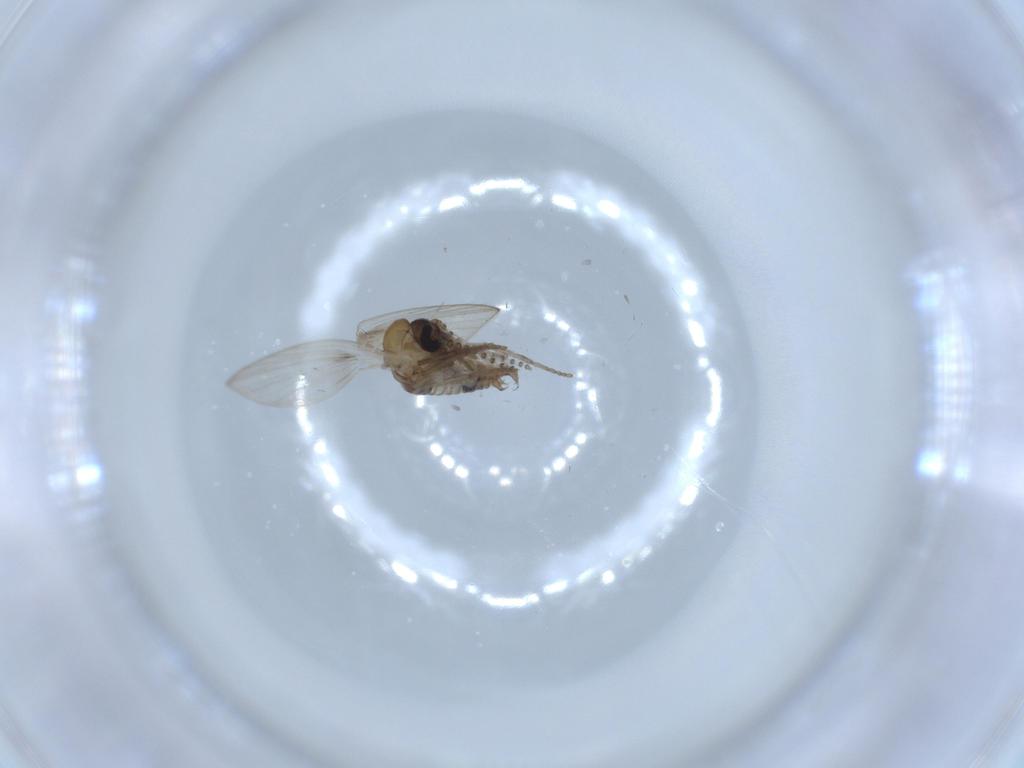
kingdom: Animalia
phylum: Arthropoda
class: Insecta
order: Diptera
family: Psychodidae
